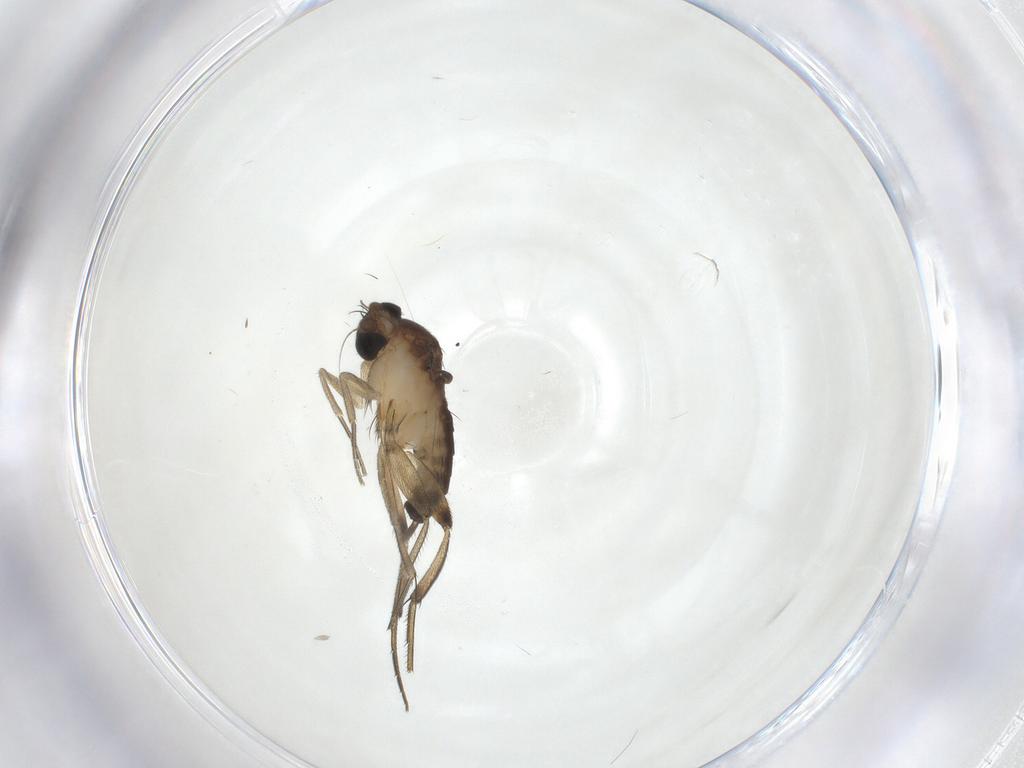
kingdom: Animalia
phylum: Arthropoda
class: Insecta
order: Diptera
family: Phoridae
